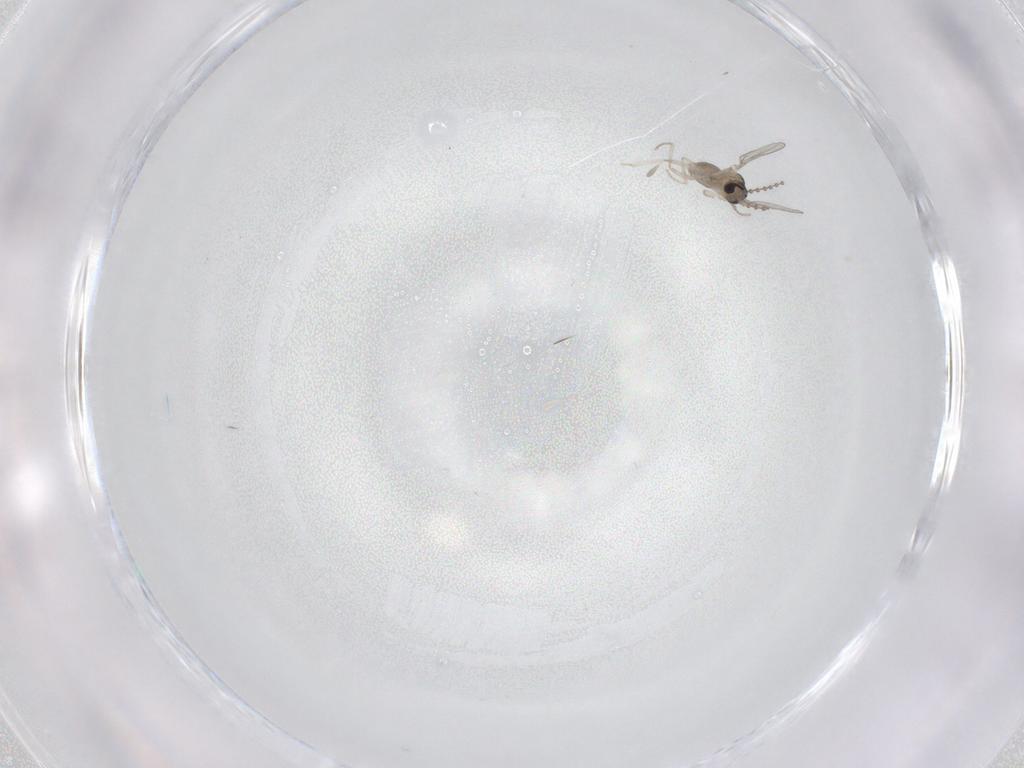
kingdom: Animalia
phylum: Arthropoda
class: Insecta
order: Diptera
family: Cecidomyiidae
